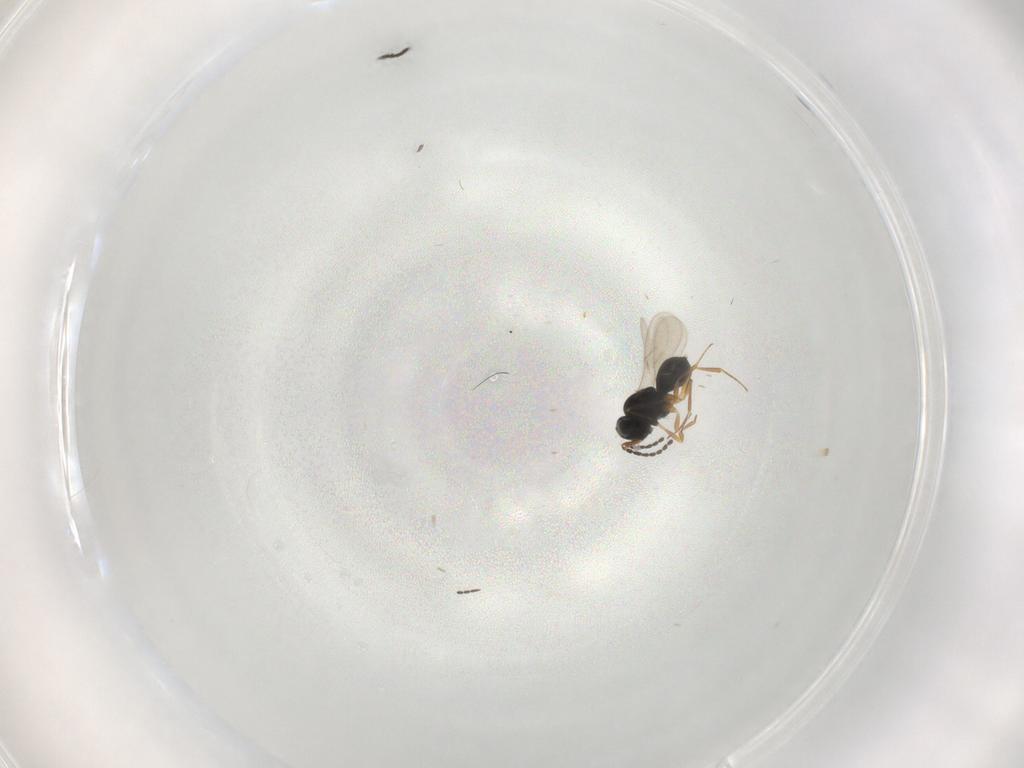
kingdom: Animalia
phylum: Arthropoda
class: Insecta
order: Hymenoptera
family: Scelionidae
